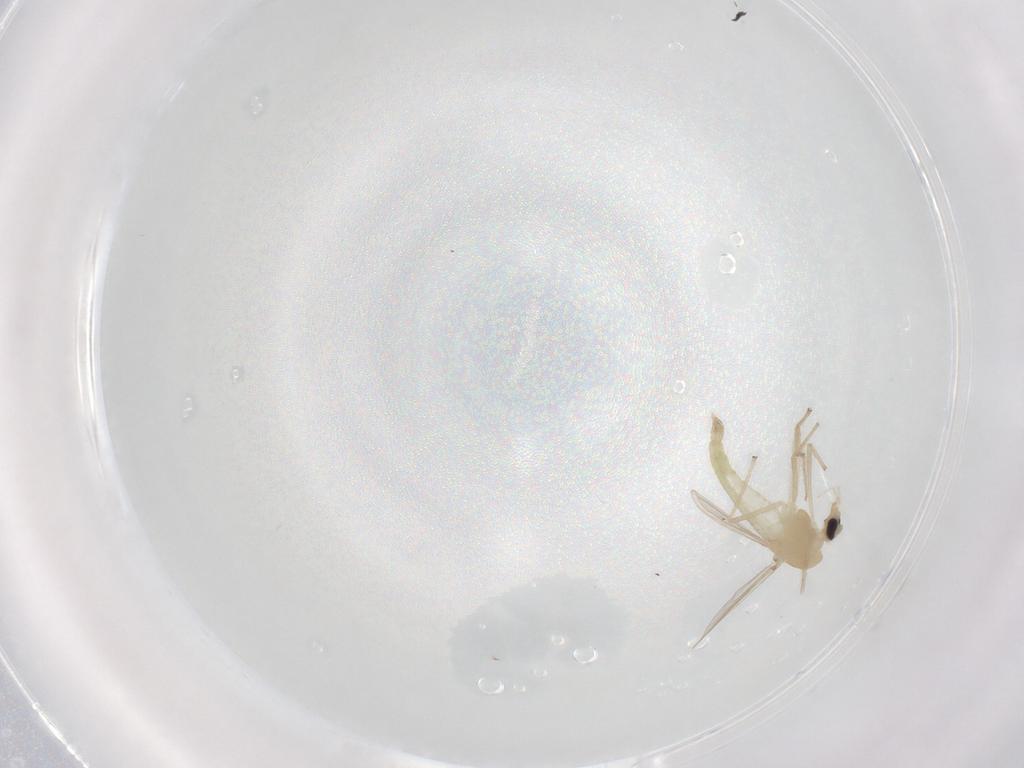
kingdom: Animalia
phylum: Arthropoda
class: Insecta
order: Diptera
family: Chironomidae
